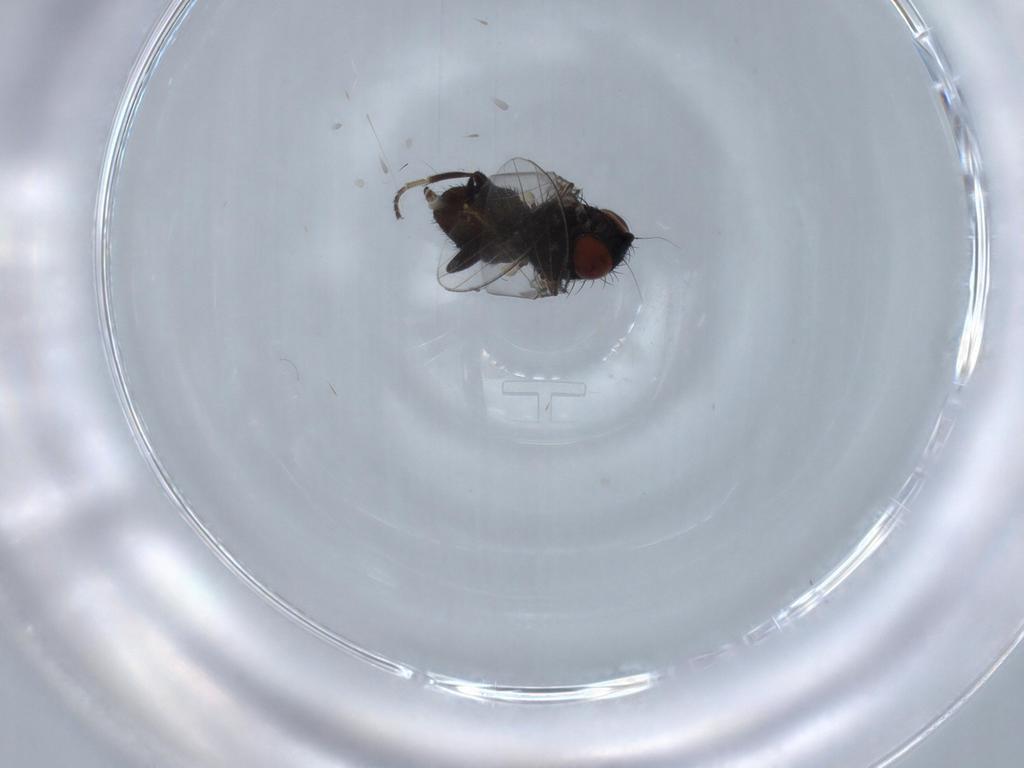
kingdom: Animalia
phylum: Arthropoda
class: Insecta
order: Diptera
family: Milichiidae
